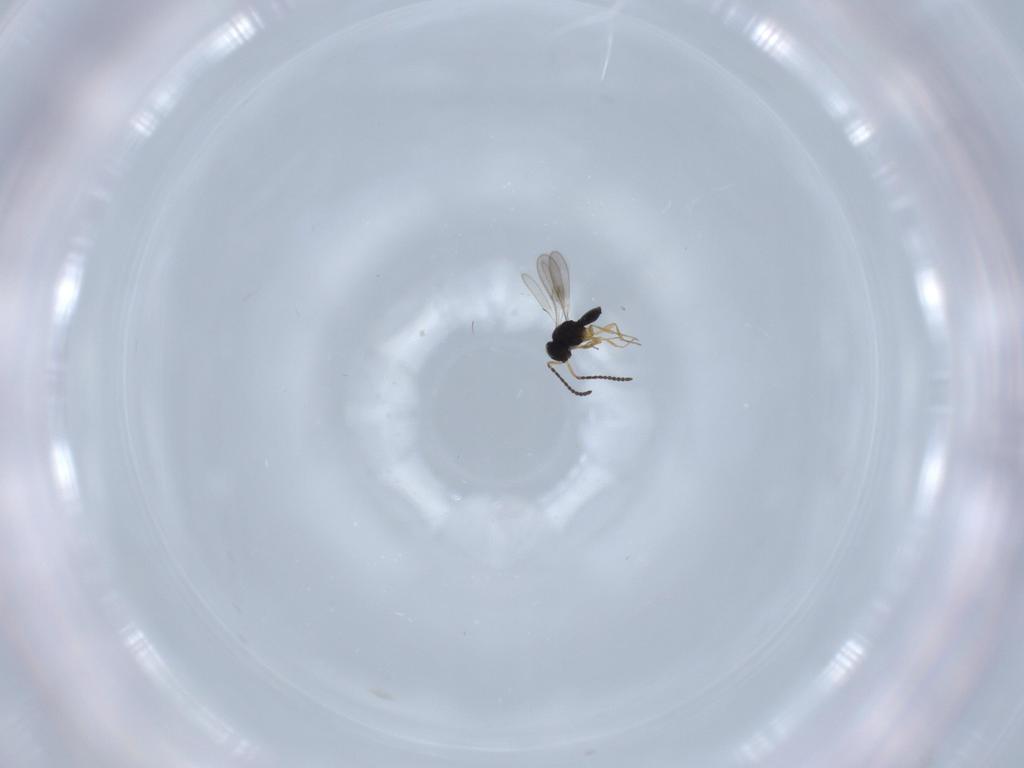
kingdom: Animalia
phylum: Arthropoda
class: Insecta
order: Hymenoptera
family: Scelionidae
